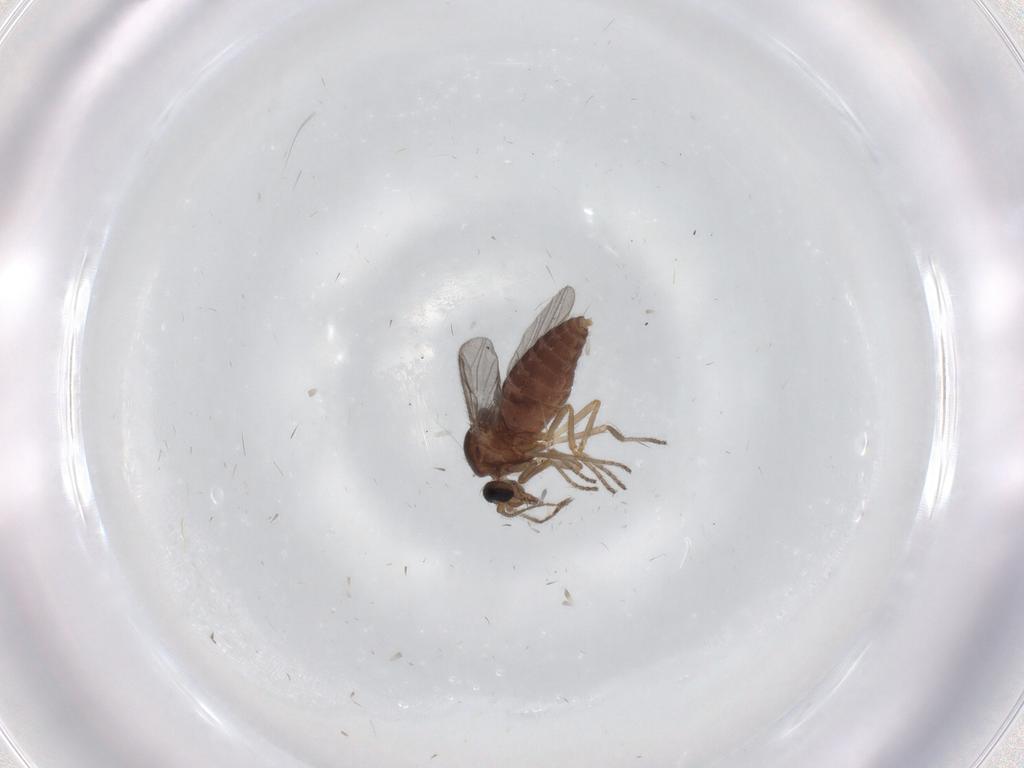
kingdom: Animalia
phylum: Arthropoda
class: Insecta
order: Diptera
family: Ceratopogonidae
